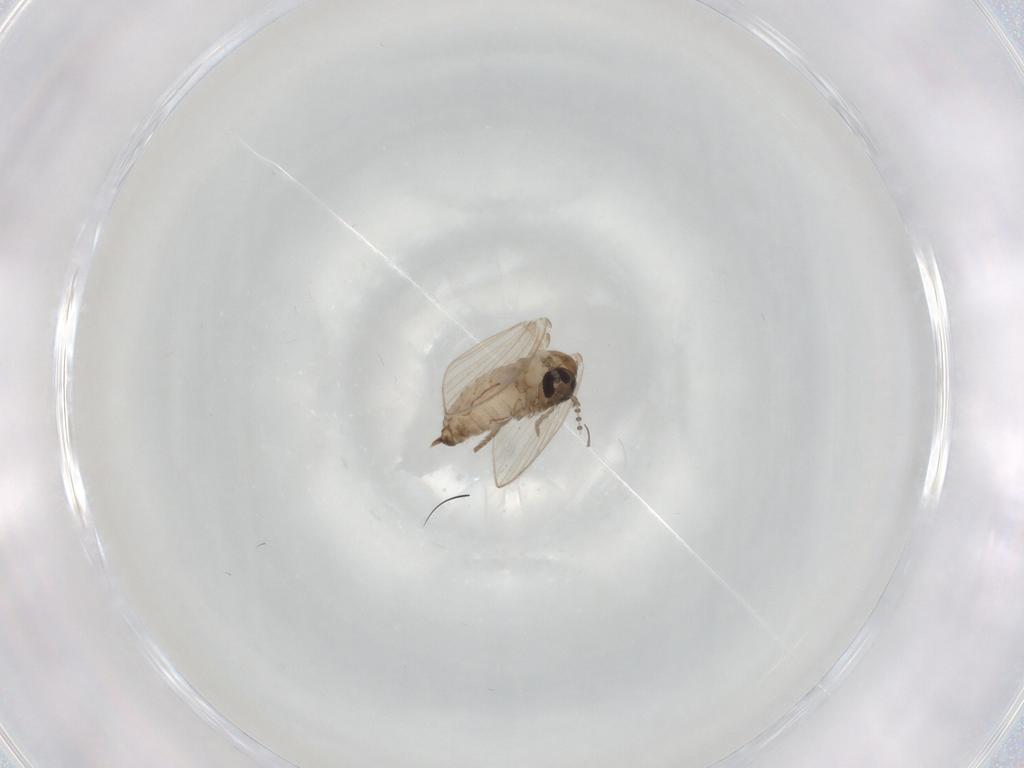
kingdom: Animalia
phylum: Arthropoda
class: Insecta
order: Diptera
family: Psychodidae
